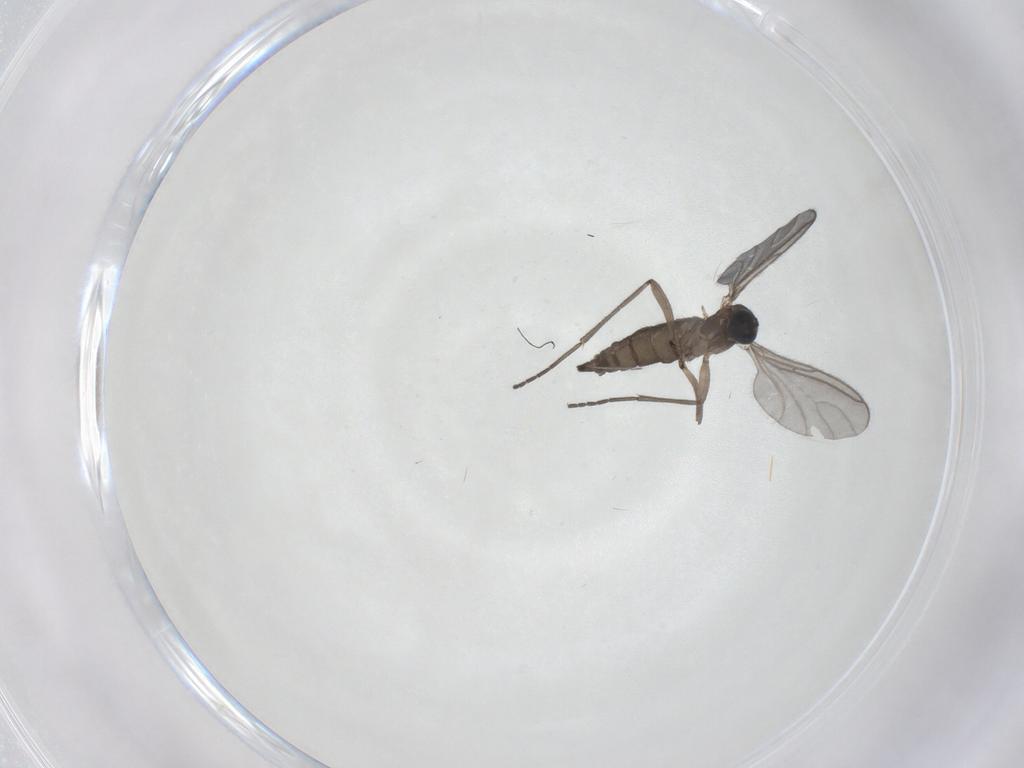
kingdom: Animalia
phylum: Arthropoda
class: Insecta
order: Diptera
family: Sciaridae
